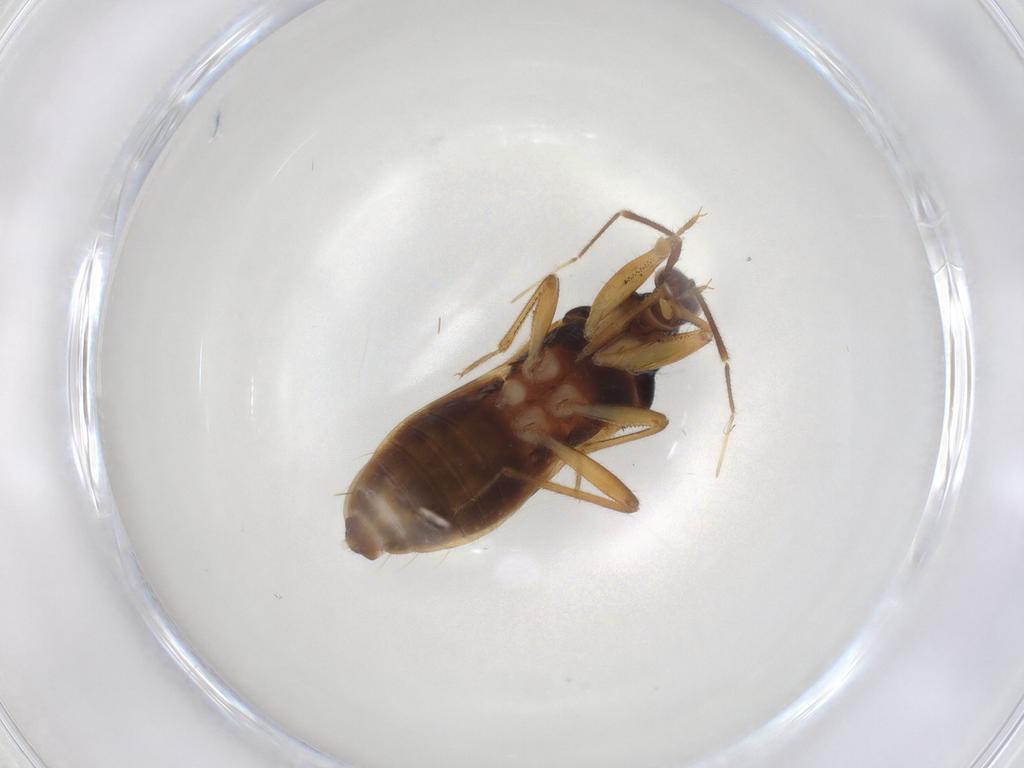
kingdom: Animalia
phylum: Arthropoda
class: Insecta
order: Hemiptera
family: Nabidae
